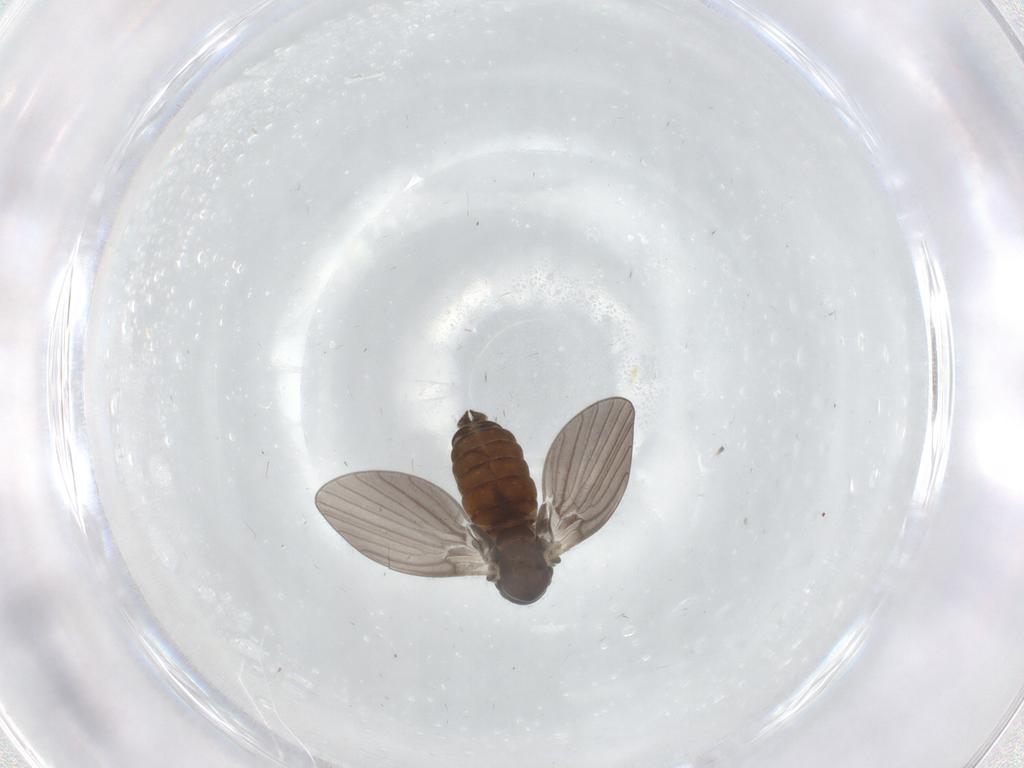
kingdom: Animalia
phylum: Arthropoda
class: Insecta
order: Diptera
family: Psychodidae
